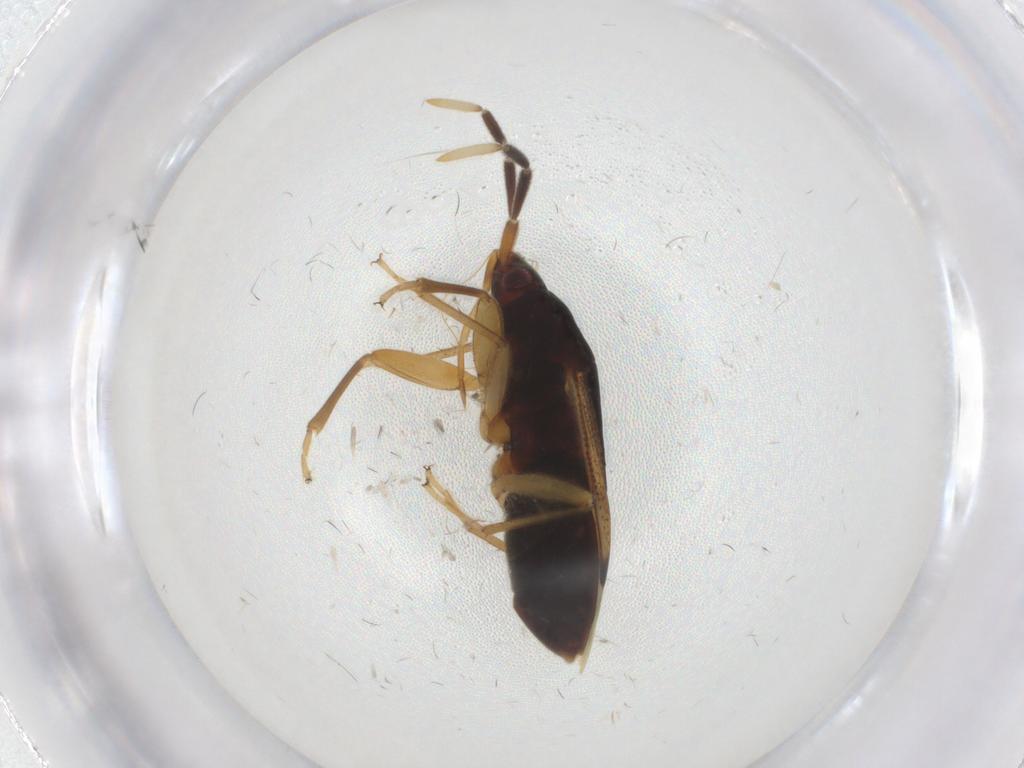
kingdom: Animalia
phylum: Arthropoda
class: Insecta
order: Hemiptera
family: Rhyparochromidae
